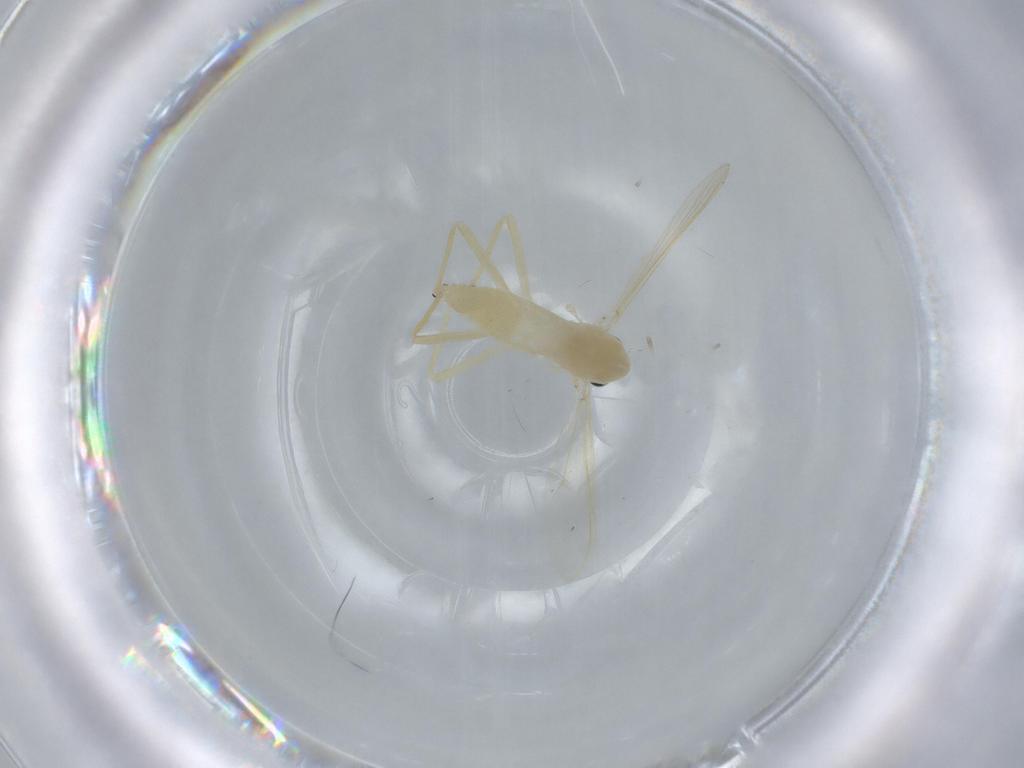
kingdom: Animalia
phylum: Arthropoda
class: Insecta
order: Diptera
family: Chironomidae
